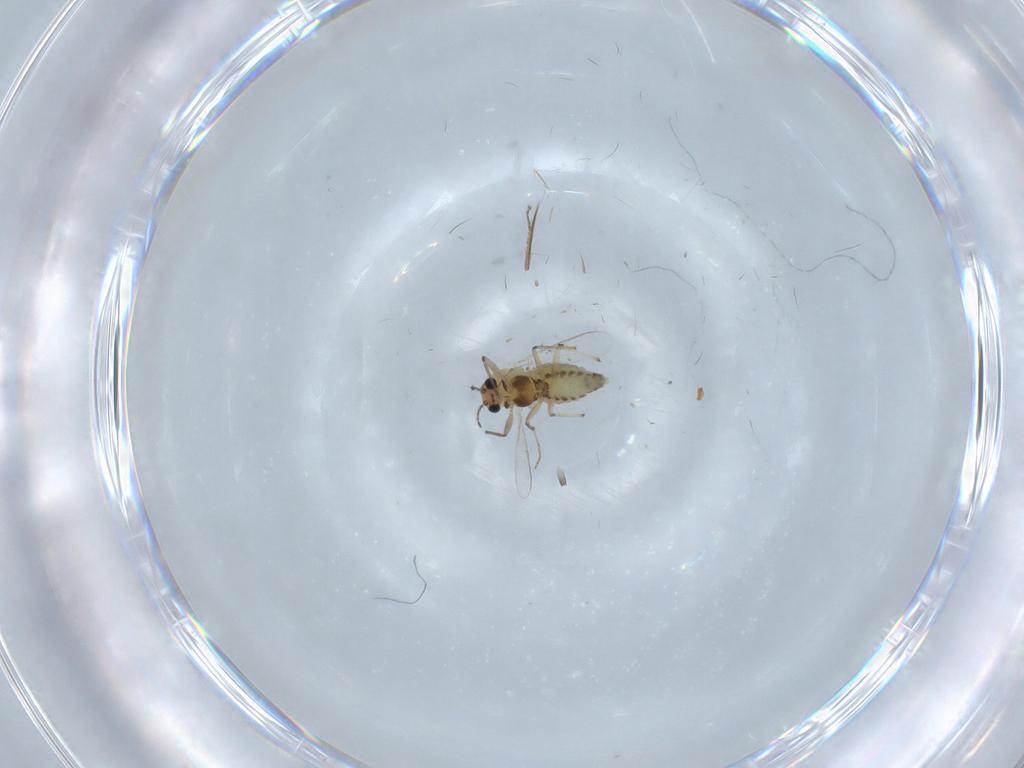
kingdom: Animalia
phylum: Arthropoda
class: Insecta
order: Diptera
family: Chironomidae
